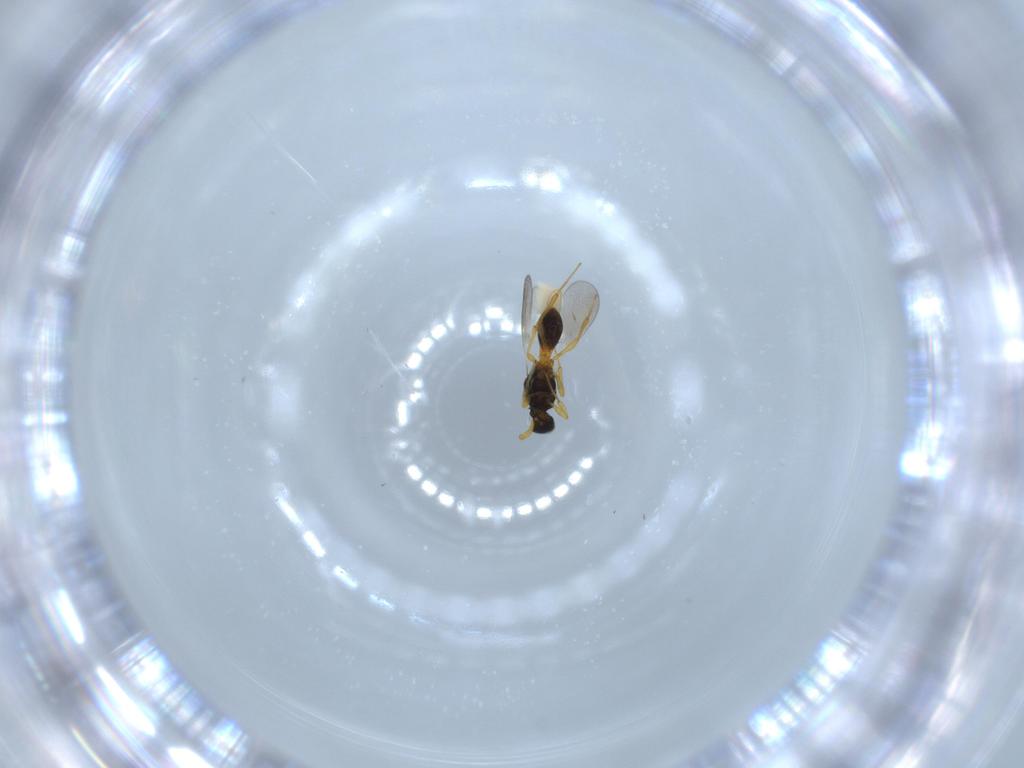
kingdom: Animalia
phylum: Arthropoda
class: Insecta
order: Hymenoptera
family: Platygastridae
